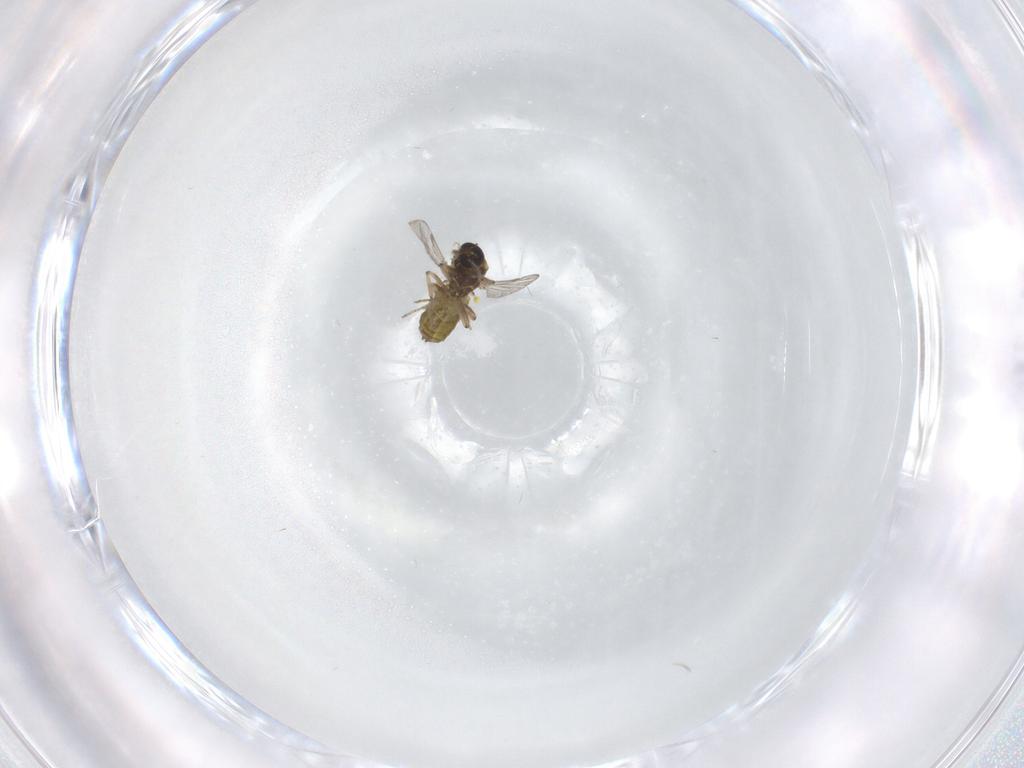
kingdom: Animalia
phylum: Arthropoda
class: Insecta
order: Diptera
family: Ceratopogonidae
